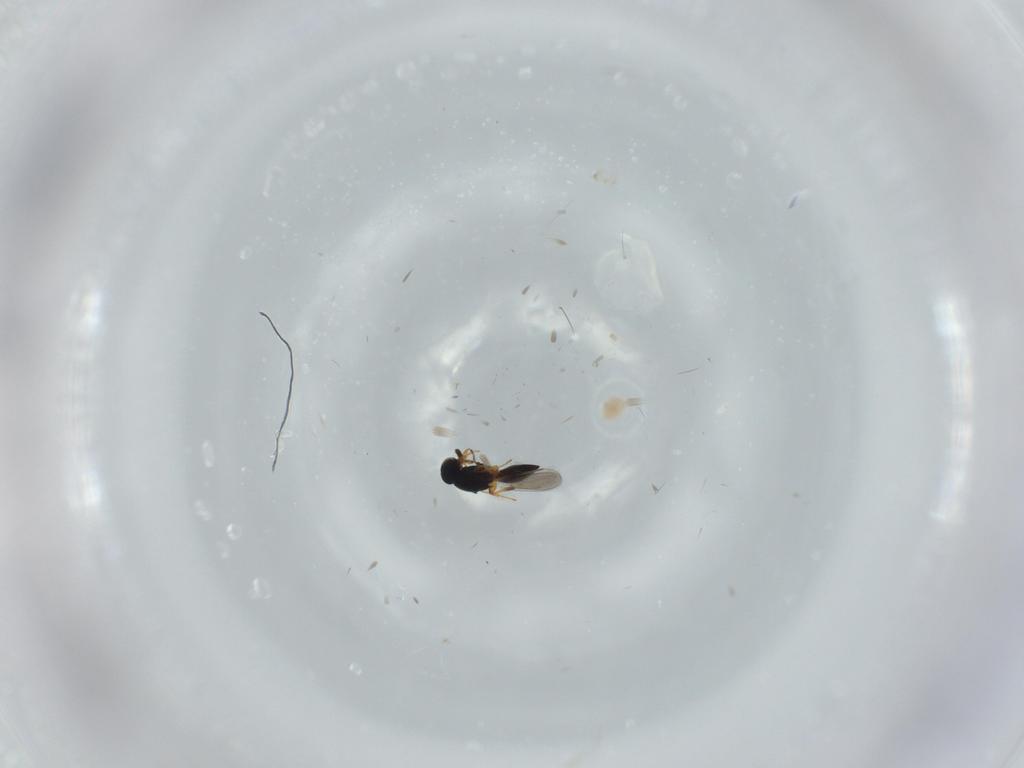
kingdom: Animalia
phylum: Arthropoda
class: Insecta
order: Hymenoptera
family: Platygastridae
